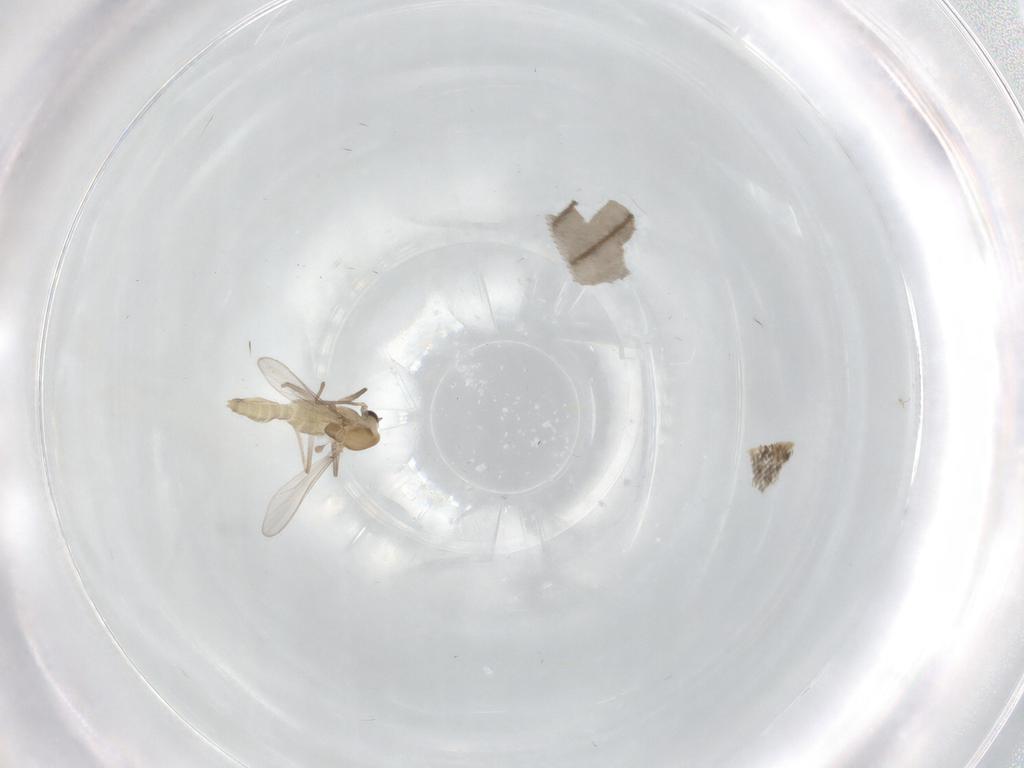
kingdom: Animalia
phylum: Arthropoda
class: Insecta
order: Diptera
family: Chironomidae
